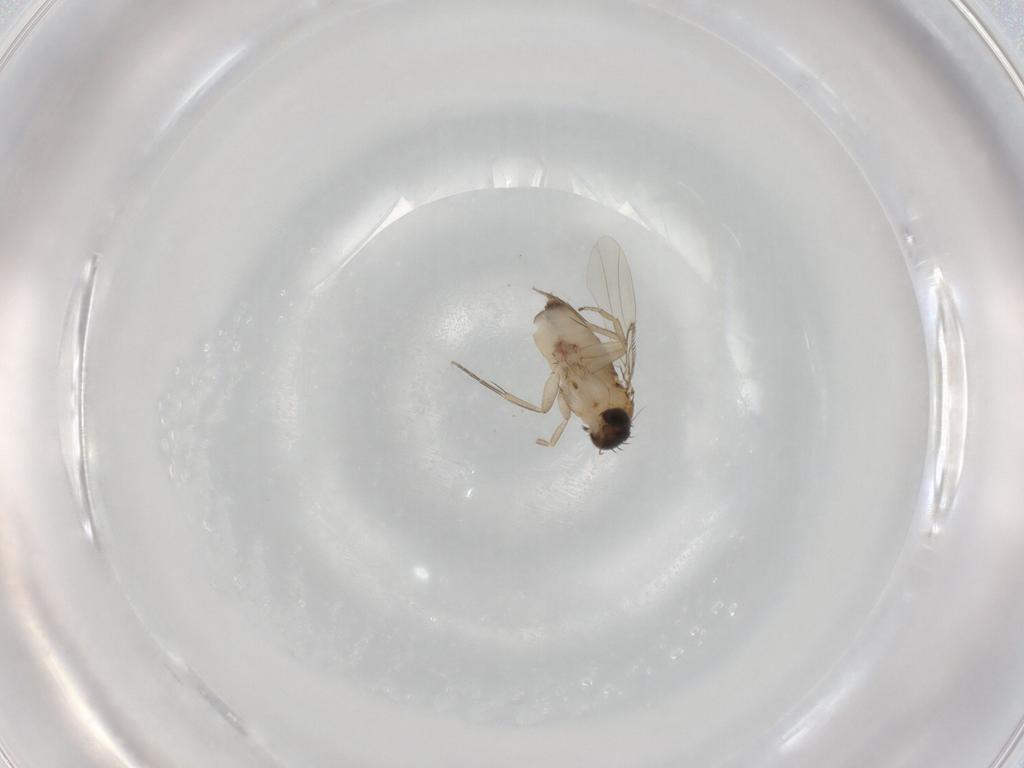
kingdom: Animalia
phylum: Arthropoda
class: Insecta
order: Diptera
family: Phoridae
